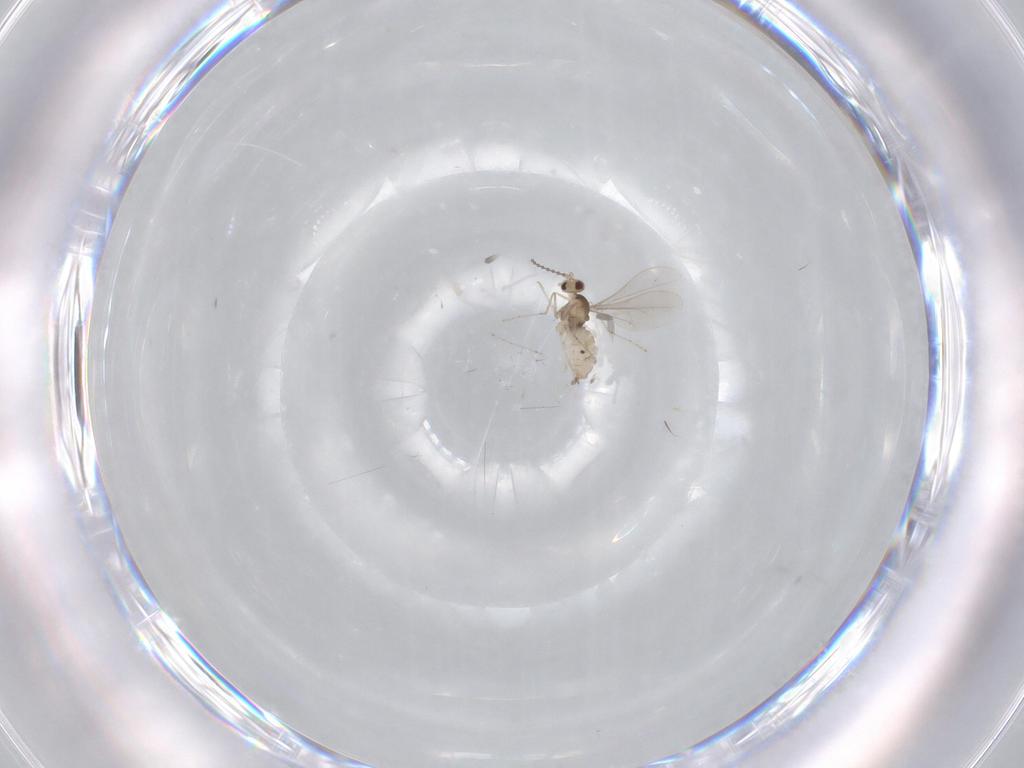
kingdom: Animalia
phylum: Arthropoda
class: Insecta
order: Diptera
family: Cecidomyiidae
